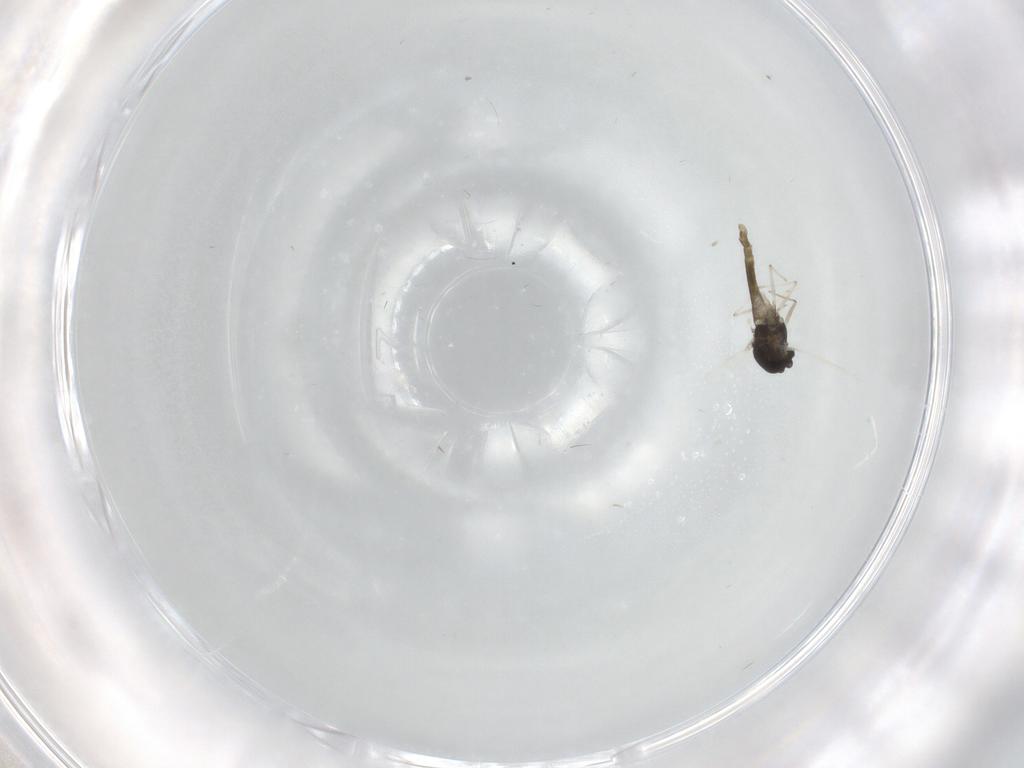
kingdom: Animalia
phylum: Arthropoda
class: Insecta
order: Diptera
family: Chironomidae
